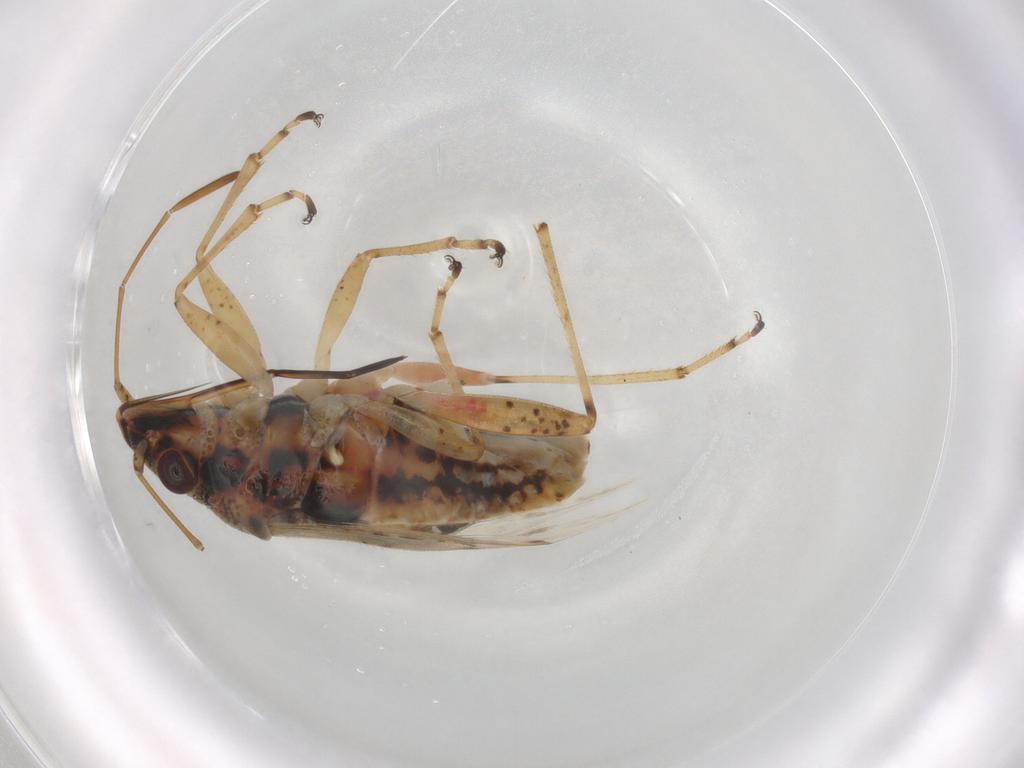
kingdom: Animalia
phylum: Arthropoda
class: Insecta
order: Hemiptera
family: Lygaeidae
